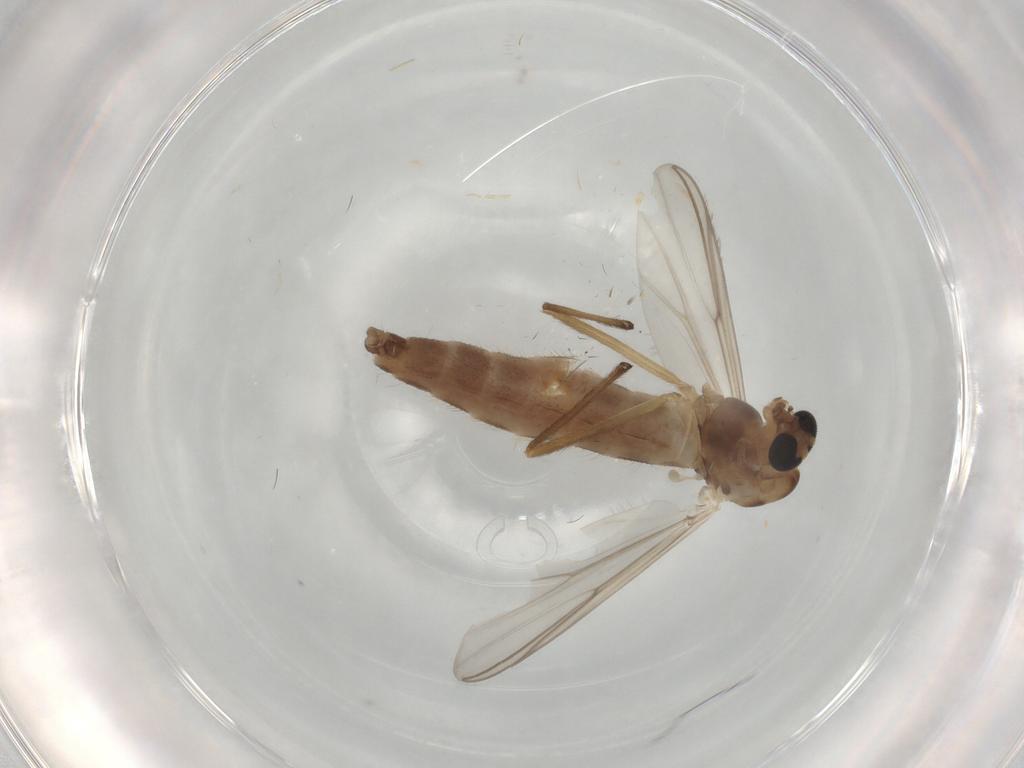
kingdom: Animalia
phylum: Arthropoda
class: Insecta
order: Diptera
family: Chironomidae
